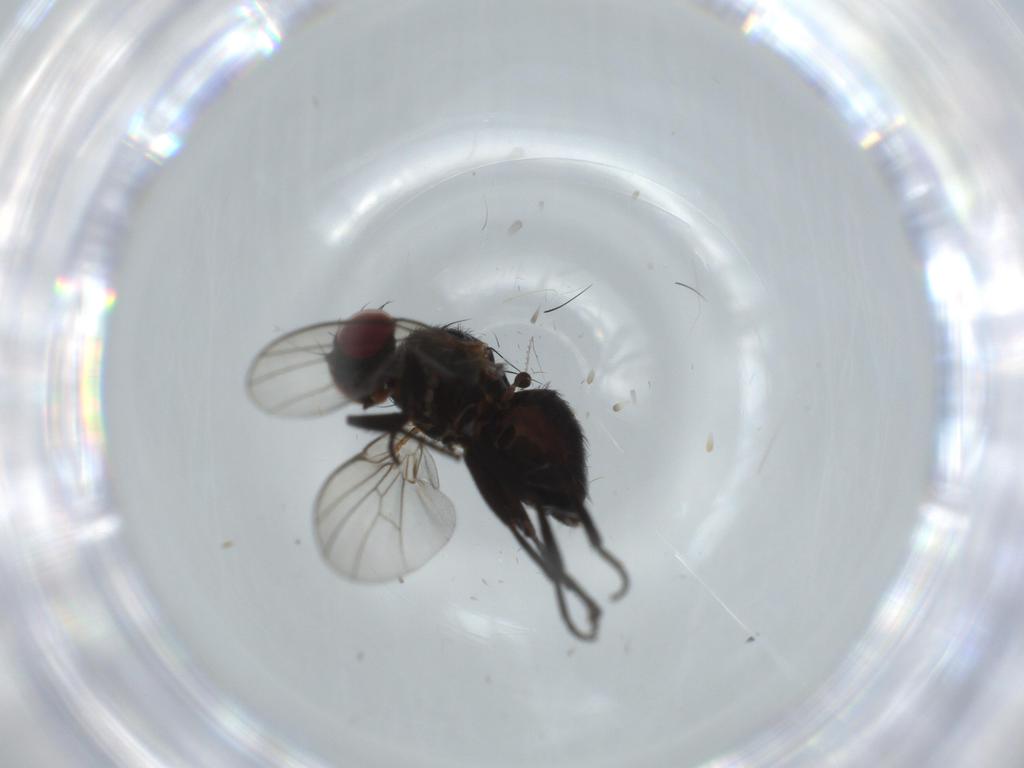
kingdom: Animalia
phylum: Arthropoda
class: Insecta
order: Diptera
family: Agromyzidae
